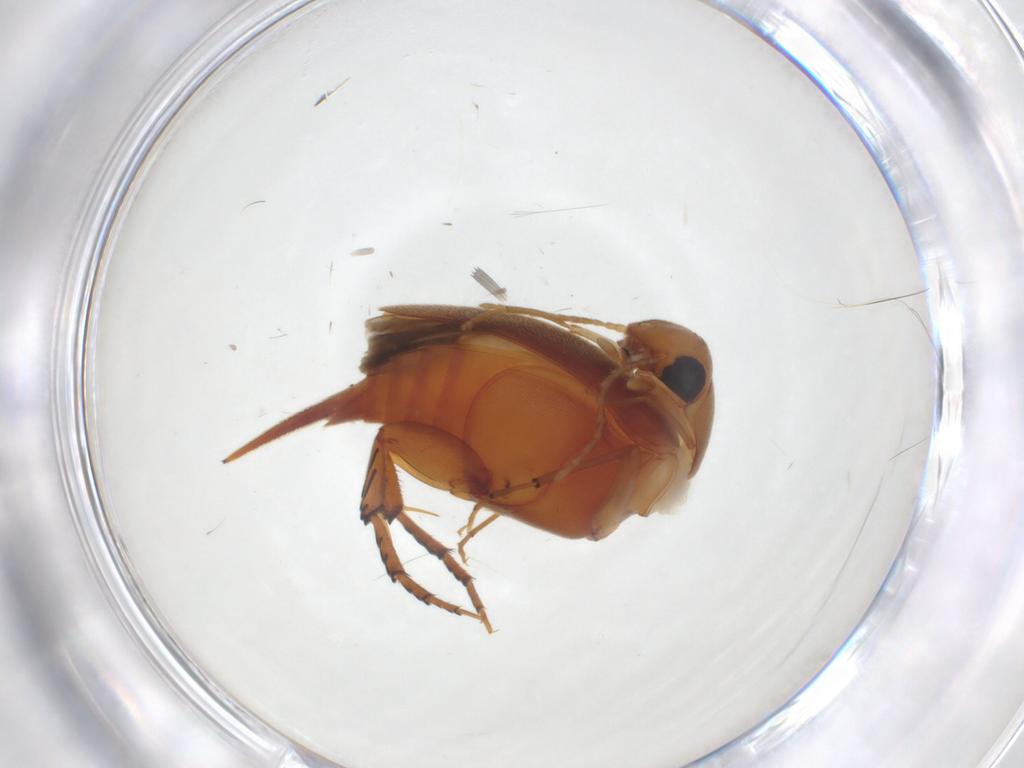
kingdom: Animalia
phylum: Arthropoda
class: Insecta
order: Coleoptera
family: Mordellidae
